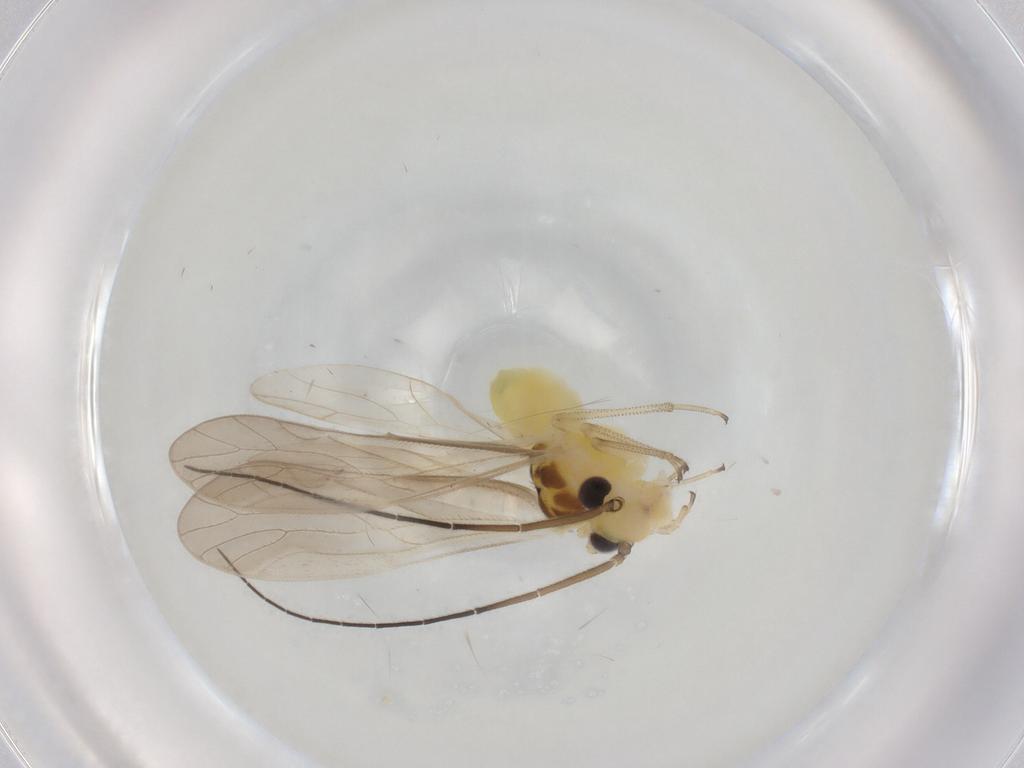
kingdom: Animalia
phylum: Arthropoda
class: Insecta
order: Psocodea
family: Caeciliusidae
